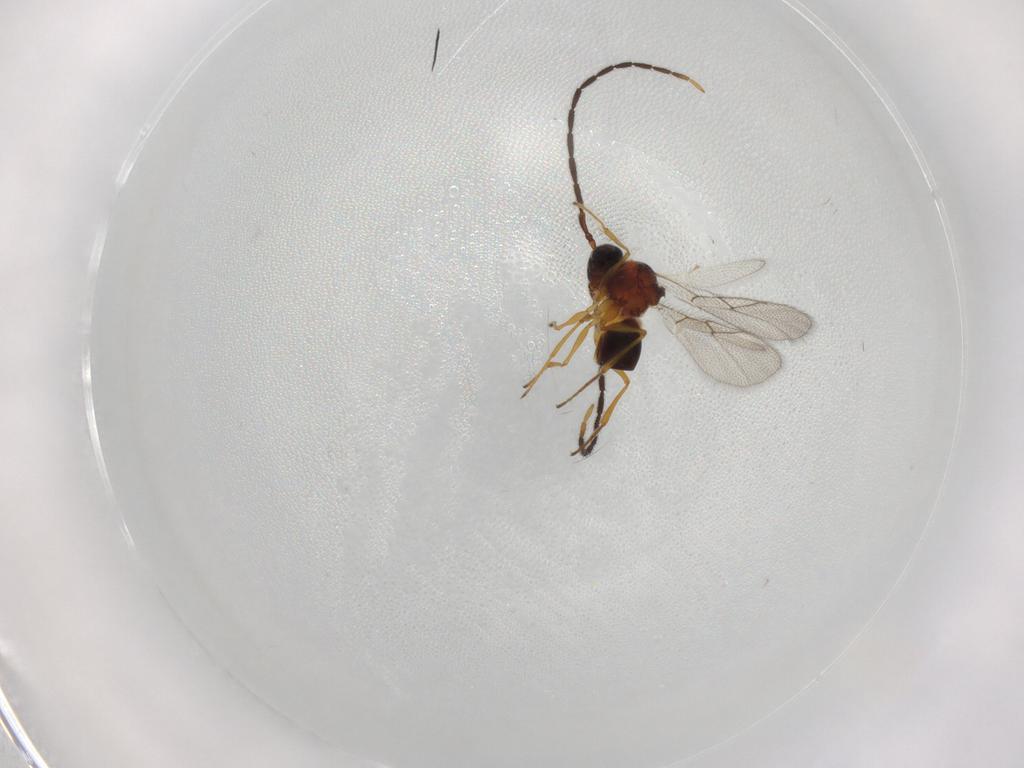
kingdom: Animalia
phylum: Arthropoda
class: Insecta
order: Hymenoptera
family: Figitidae
